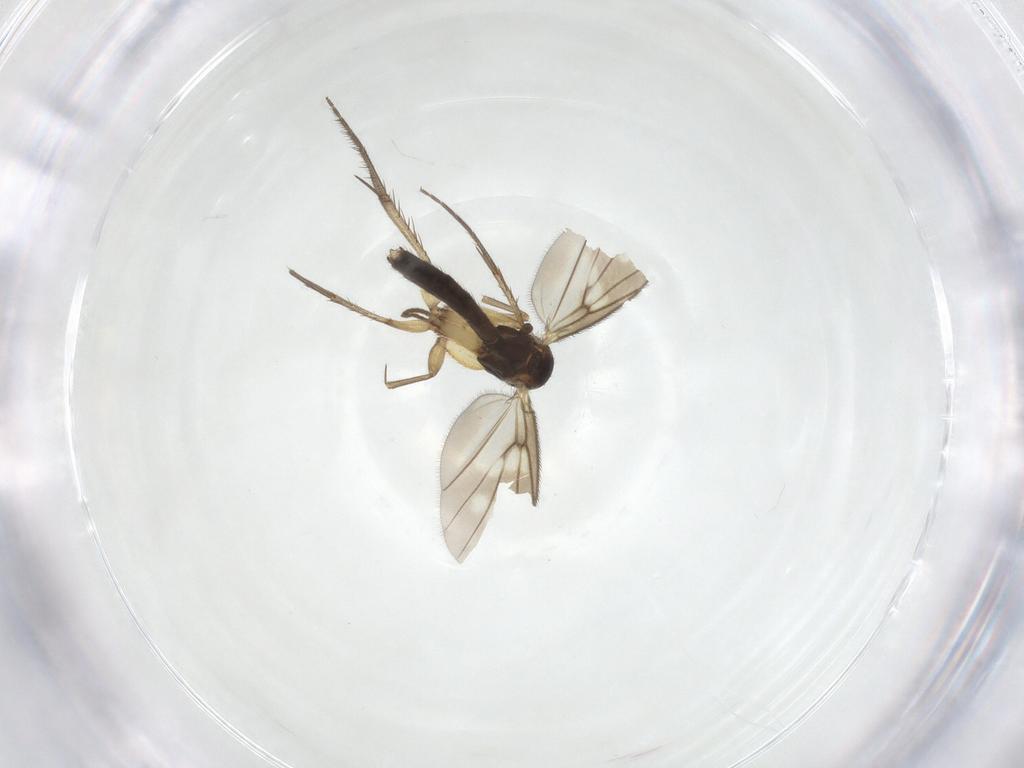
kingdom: Animalia
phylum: Arthropoda
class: Insecta
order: Diptera
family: Mycetophilidae
